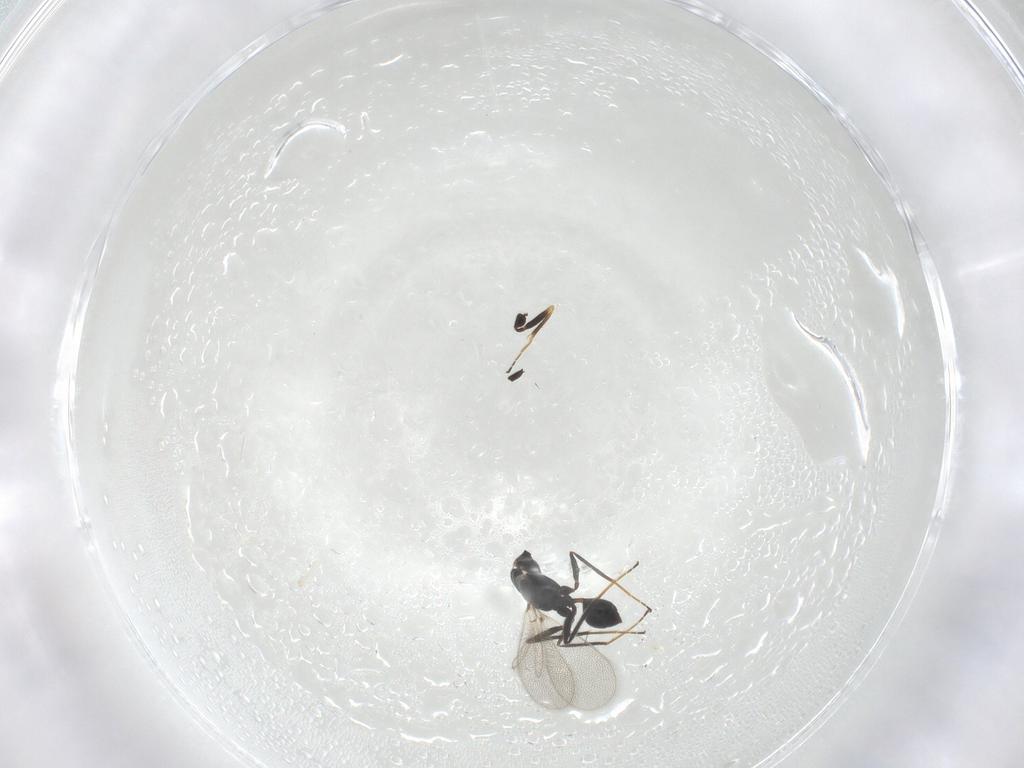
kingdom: Animalia
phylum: Arthropoda
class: Insecta
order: Hymenoptera
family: Mymaridae
